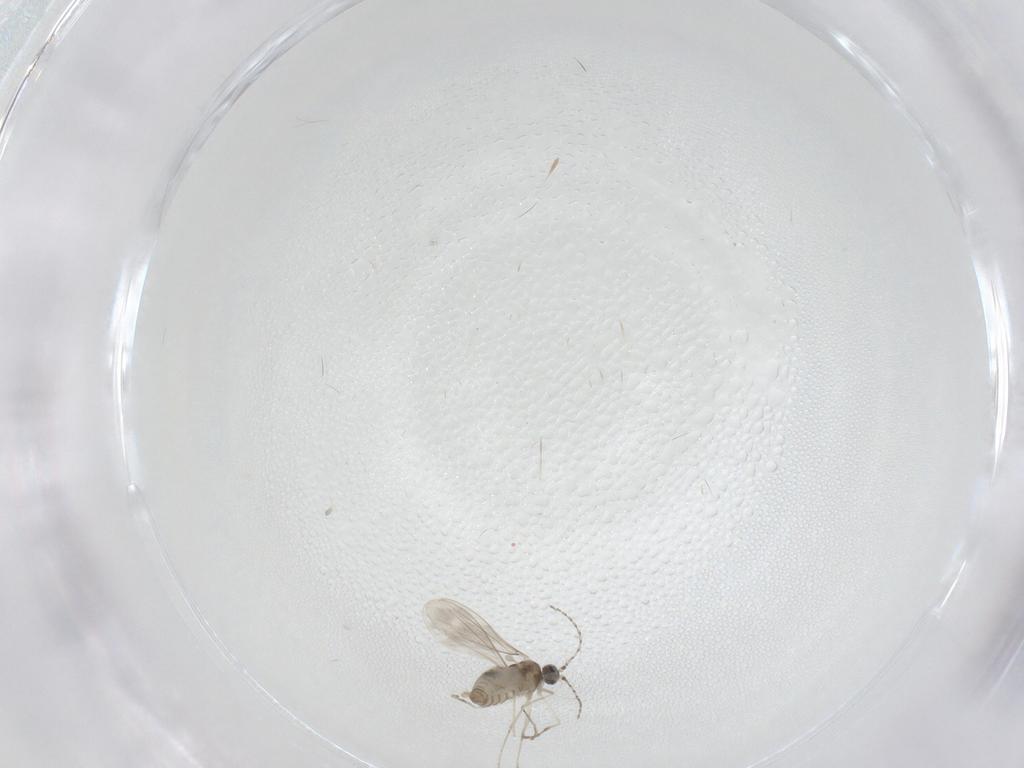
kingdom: Animalia
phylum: Arthropoda
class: Insecta
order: Diptera
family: Cecidomyiidae
